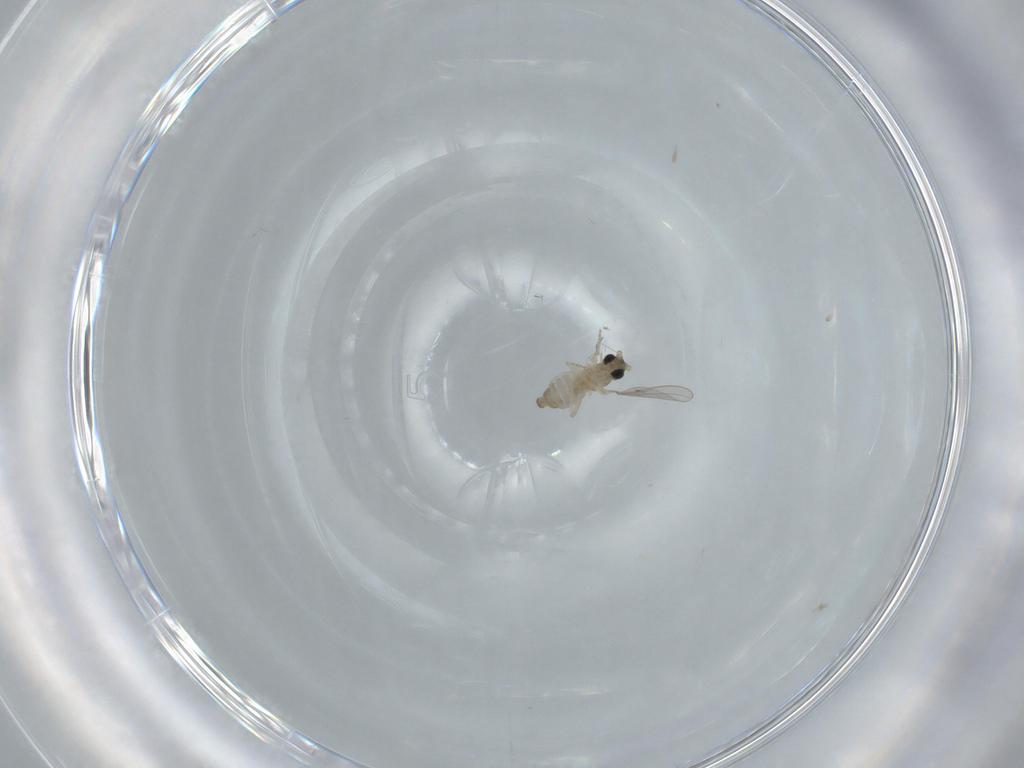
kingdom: Animalia
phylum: Arthropoda
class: Insecta
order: Diptera
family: Cecidomyiidae
